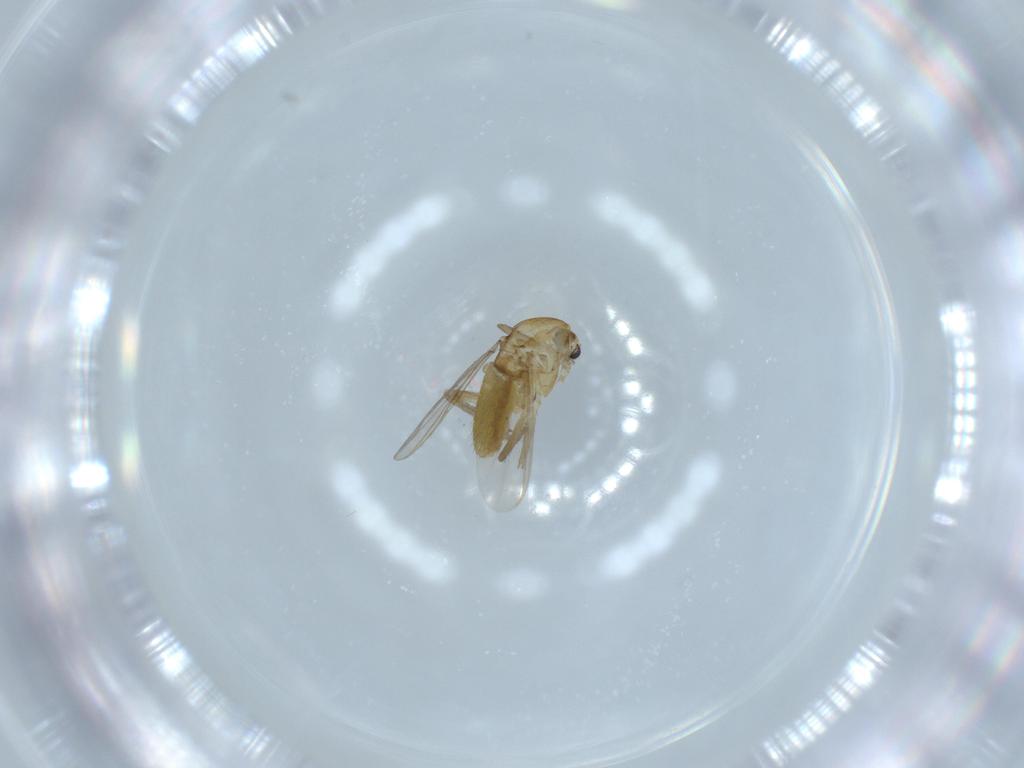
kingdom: Animalia
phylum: Arthropoda
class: Insecta
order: Diptera
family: Chironomidae
